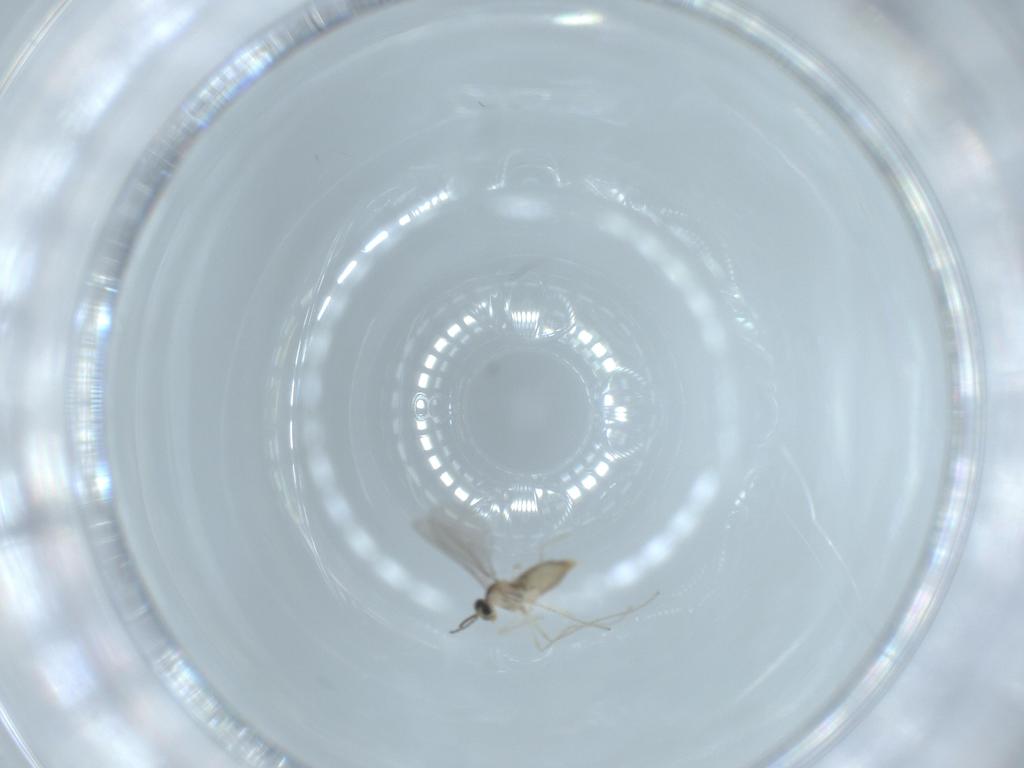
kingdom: Animalia
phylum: Arthropoda
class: Insecta
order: Diptera
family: Cecidomyiidae
